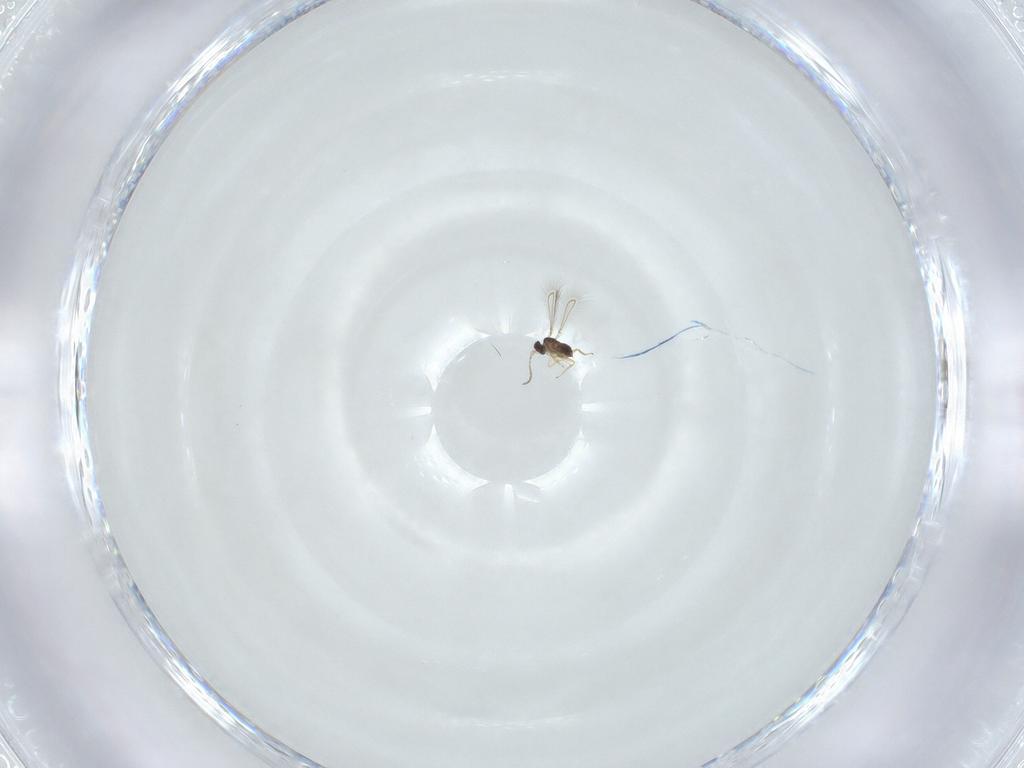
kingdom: Animalia
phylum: Arthropoda
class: Insecta
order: Hymenoptera
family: Mymaridae
